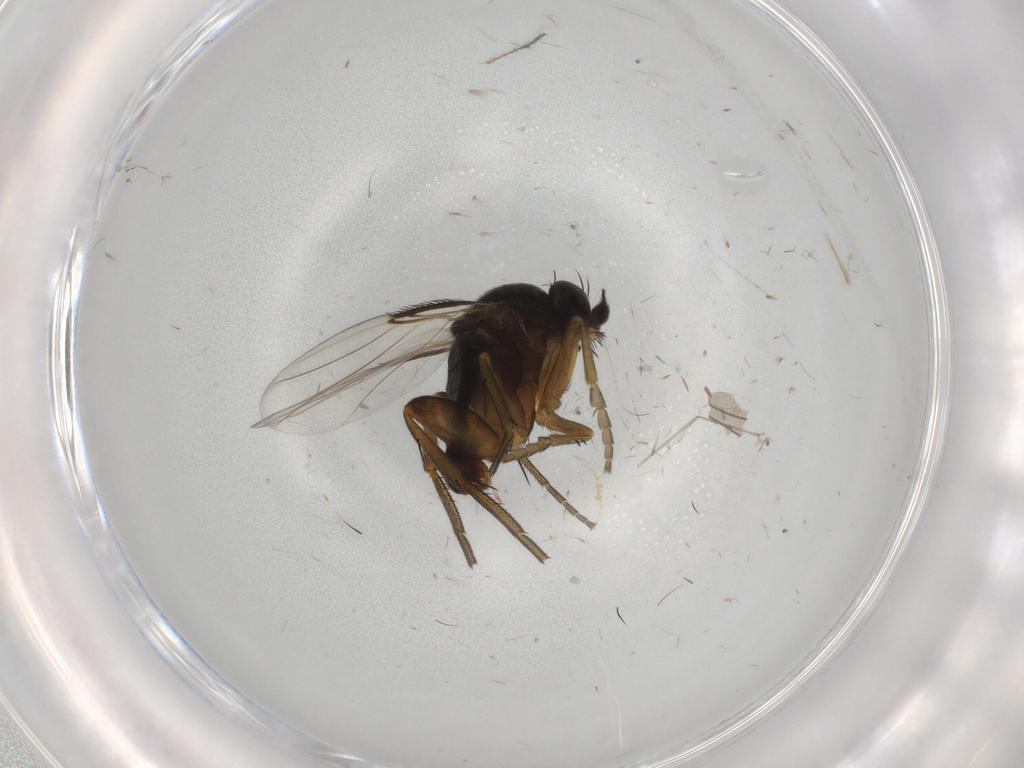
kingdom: Animalia
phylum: Arthropoda
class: Insecta
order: Diptera
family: Phoridae
